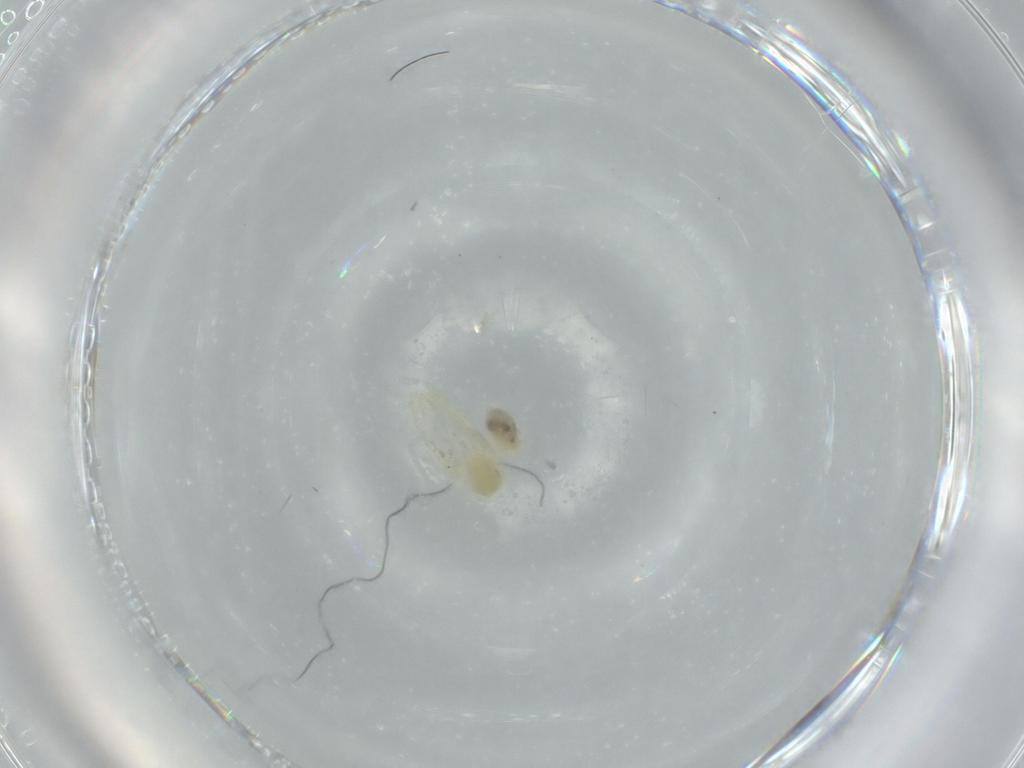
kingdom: Animalia
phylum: Arthropoda
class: Insecta
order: Hemiptera
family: Aleyrodidae
